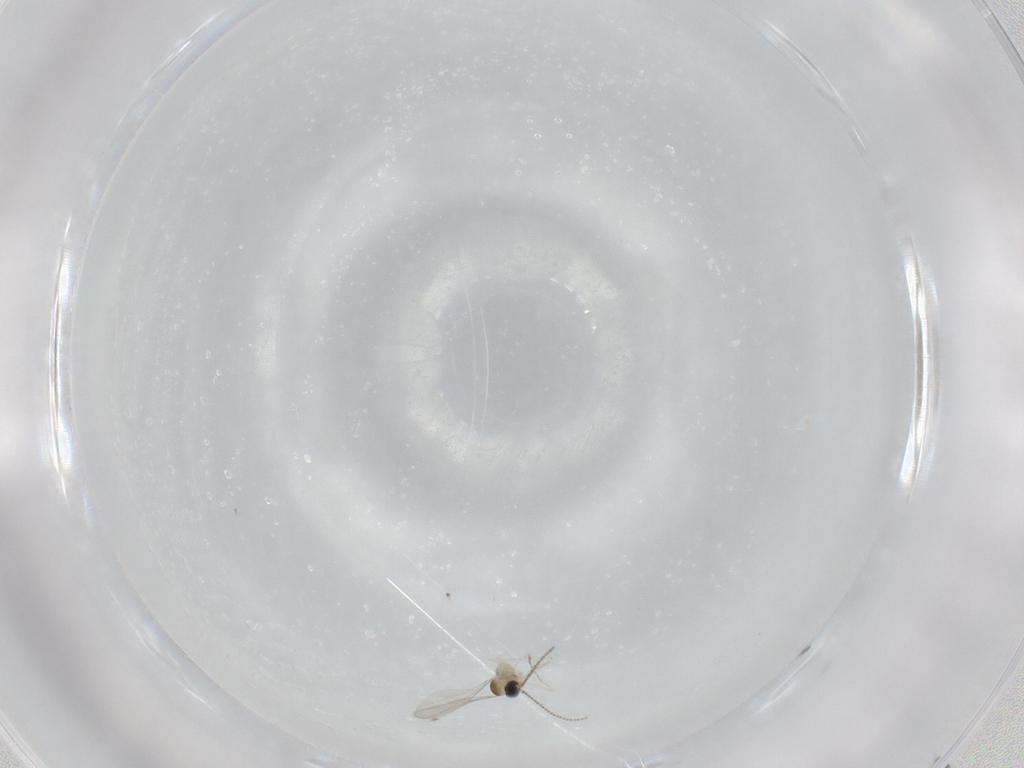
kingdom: Animalia
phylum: Arthropoda
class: Insecta
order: Diptera
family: Cecidomyiidae
